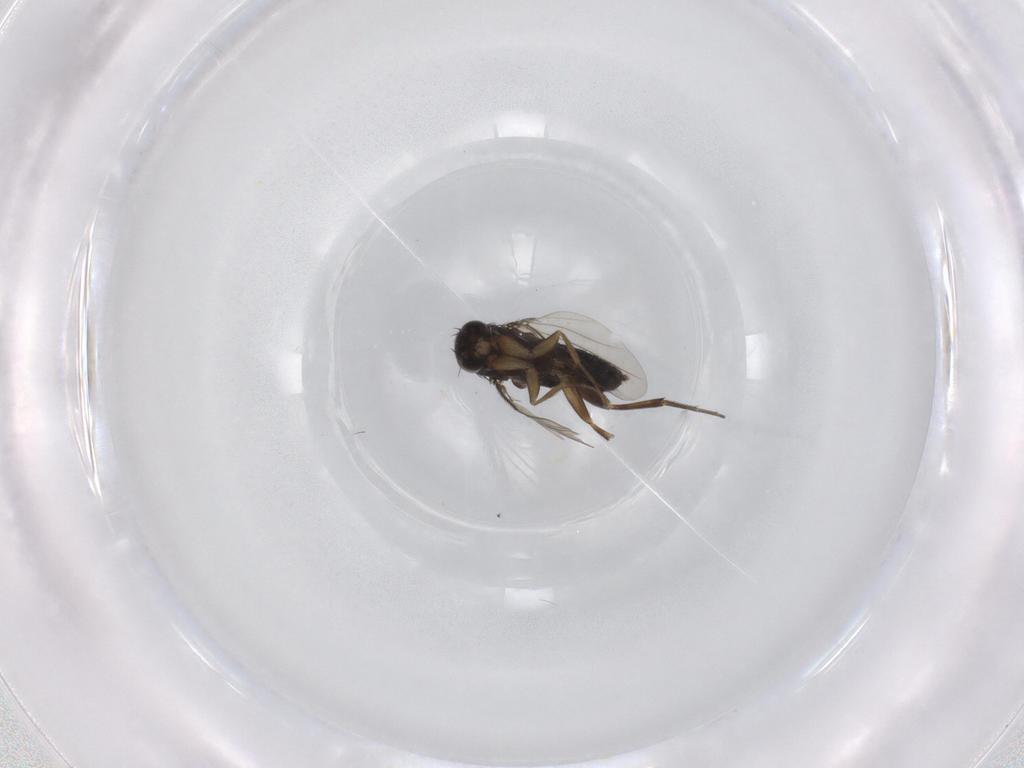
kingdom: Animalia
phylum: Arthropoda
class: Insecta
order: Diptera
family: Phoridae
